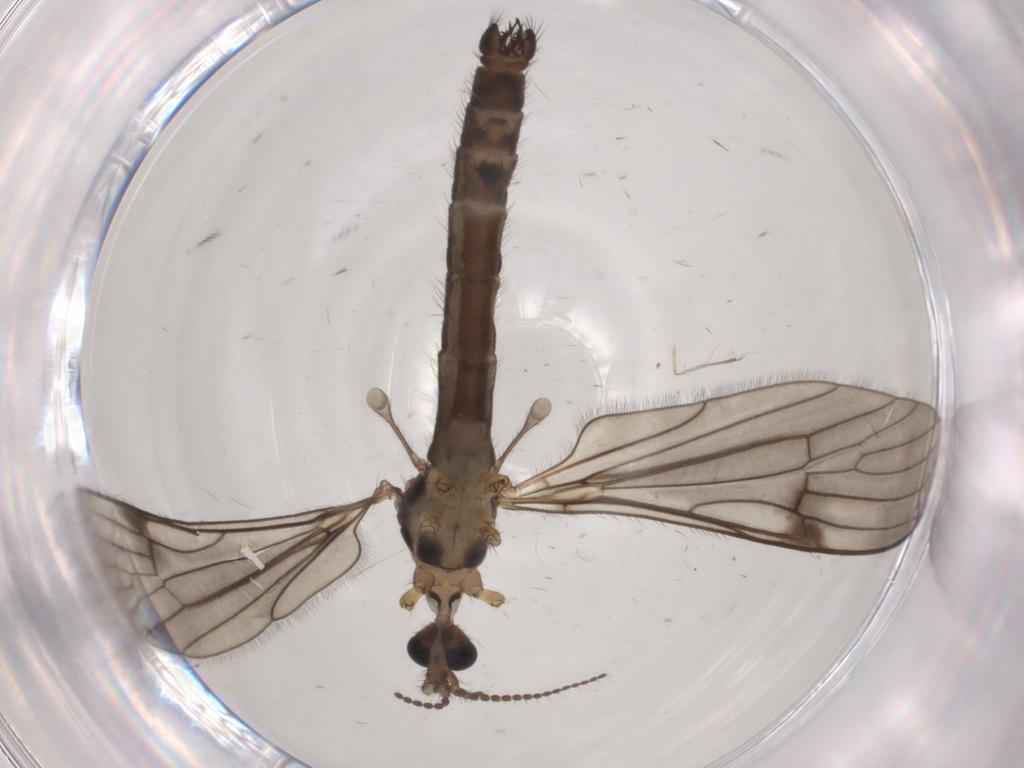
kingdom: Animalia
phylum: Arthropoda
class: Insecta
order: Diptera
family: Limoniidae
